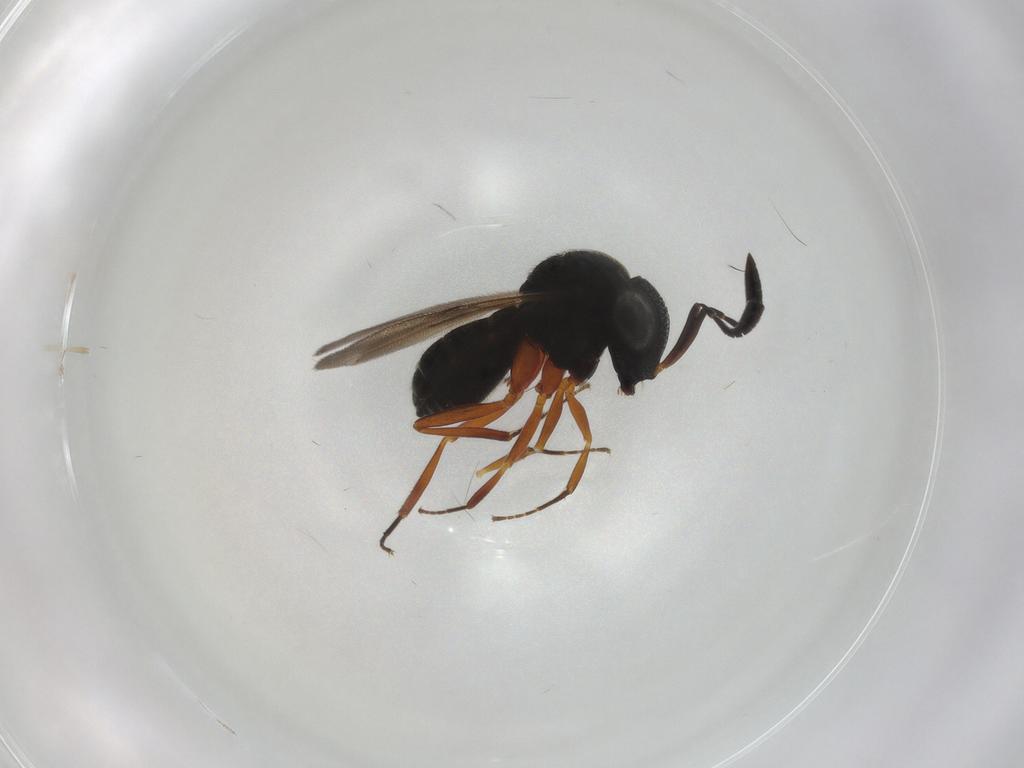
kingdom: Animalia
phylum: Arthropoda
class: Insecta
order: Hymenoptera
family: Scelionidae
